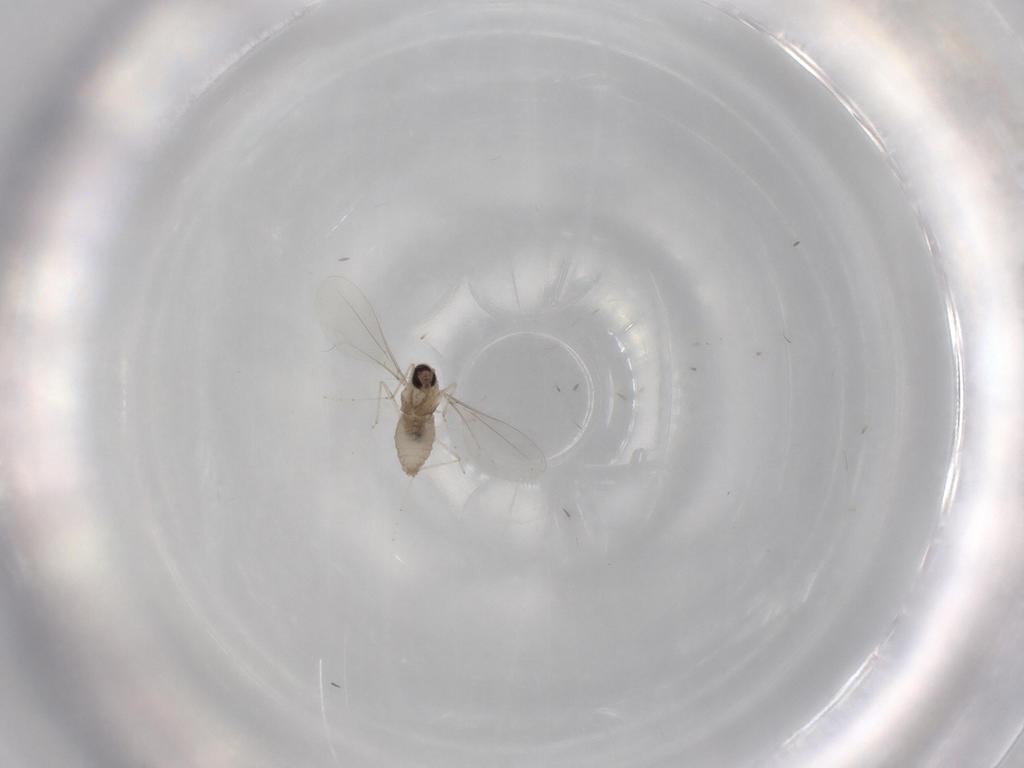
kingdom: Animalia
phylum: Arthropoda
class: Insecta
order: Diptera
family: Cecidomyiidae
